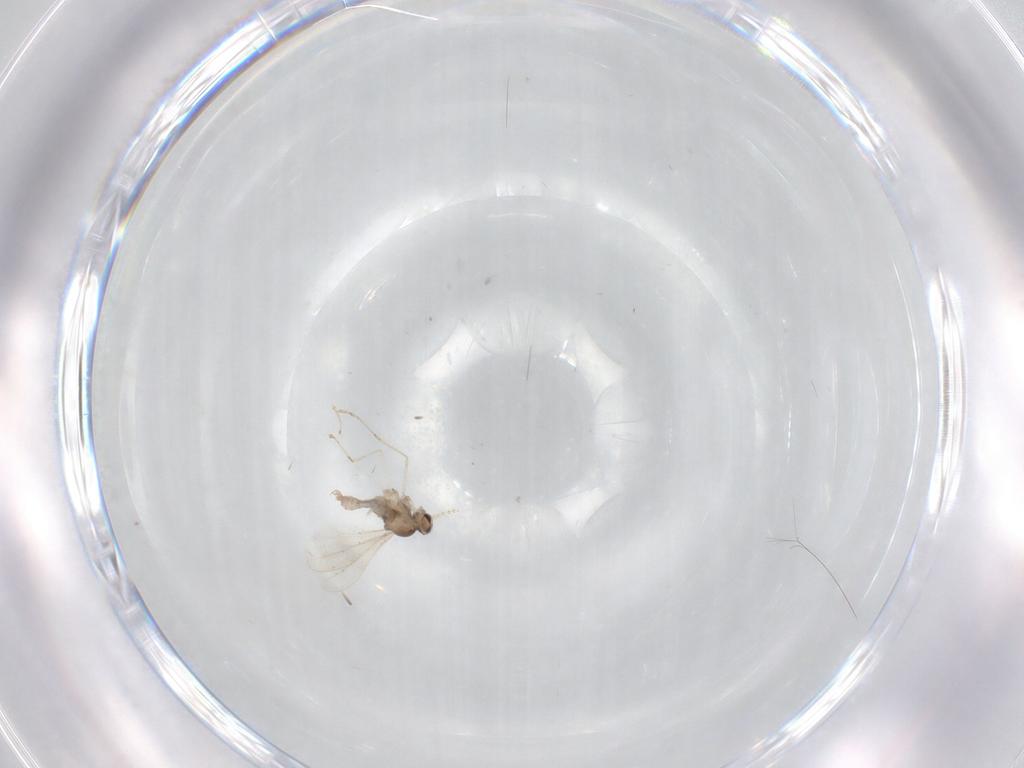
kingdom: Animalia
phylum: Arthropoda
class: Insecta
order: Diptera
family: Cecidomyiidae
